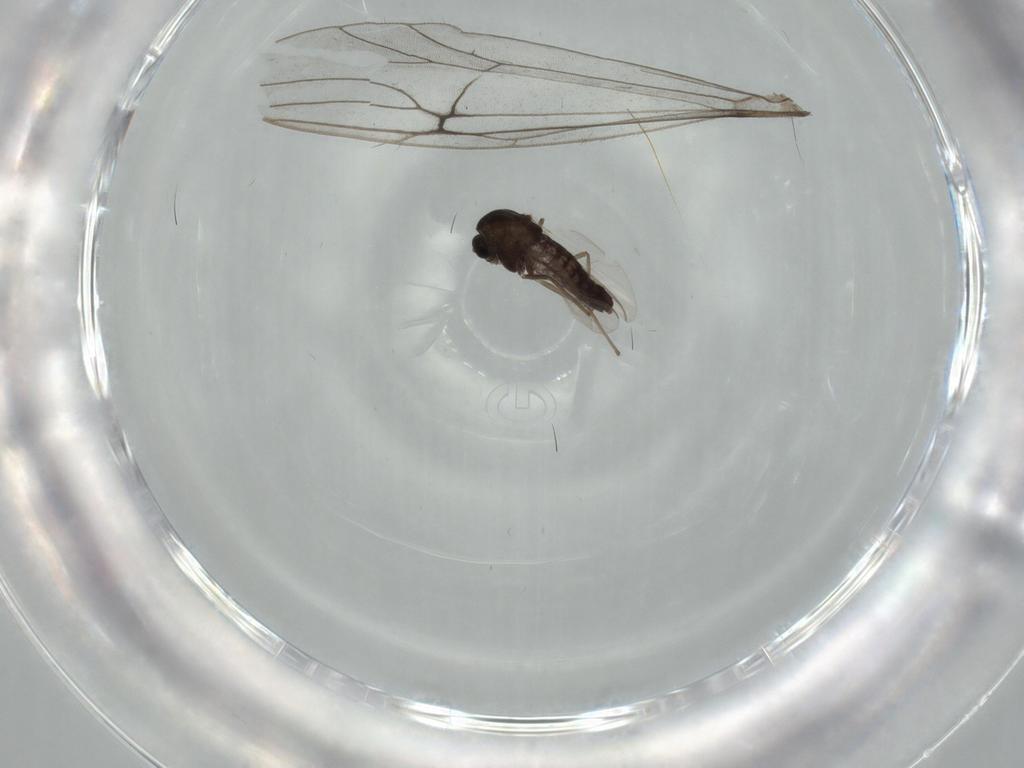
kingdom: Animalia
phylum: Arthropoda
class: Insecta
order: Diptera
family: Chironomidae
